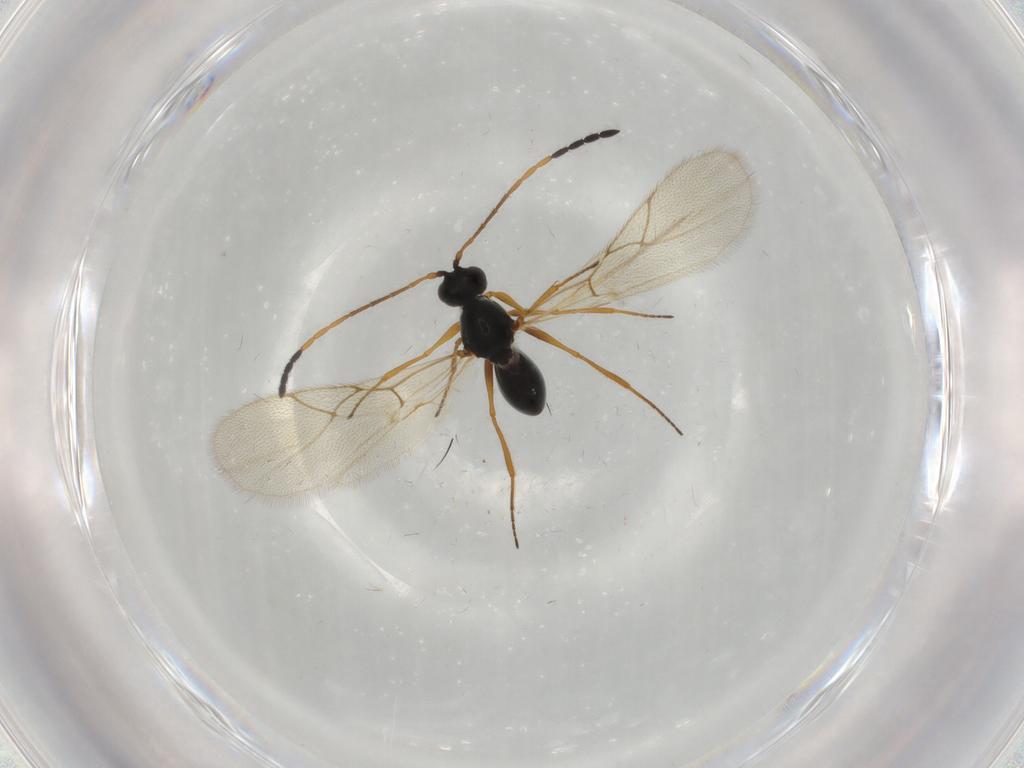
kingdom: Animalia
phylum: Arthropoda
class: Insecta
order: Hymenoptera
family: Figitidae
